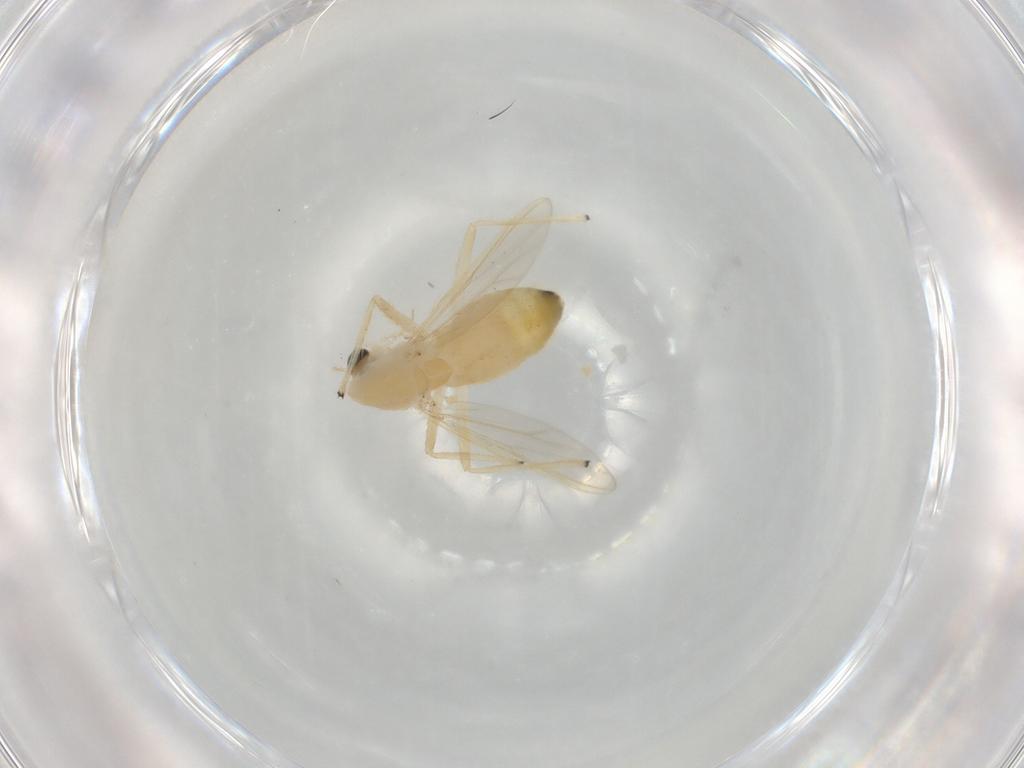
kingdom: Animalia
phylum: Arthropoda
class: Insecta
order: Diptera
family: Chironomidae
